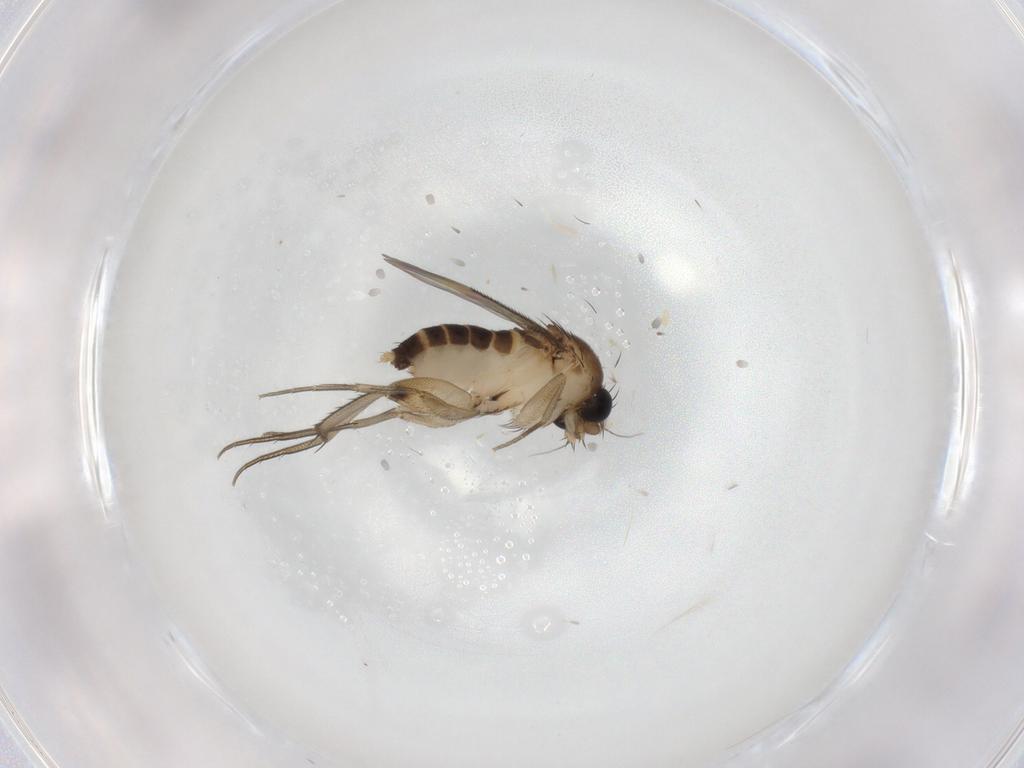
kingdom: Animalia
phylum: Arthropoda
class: Insecta
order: Diptera
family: Phoridae
